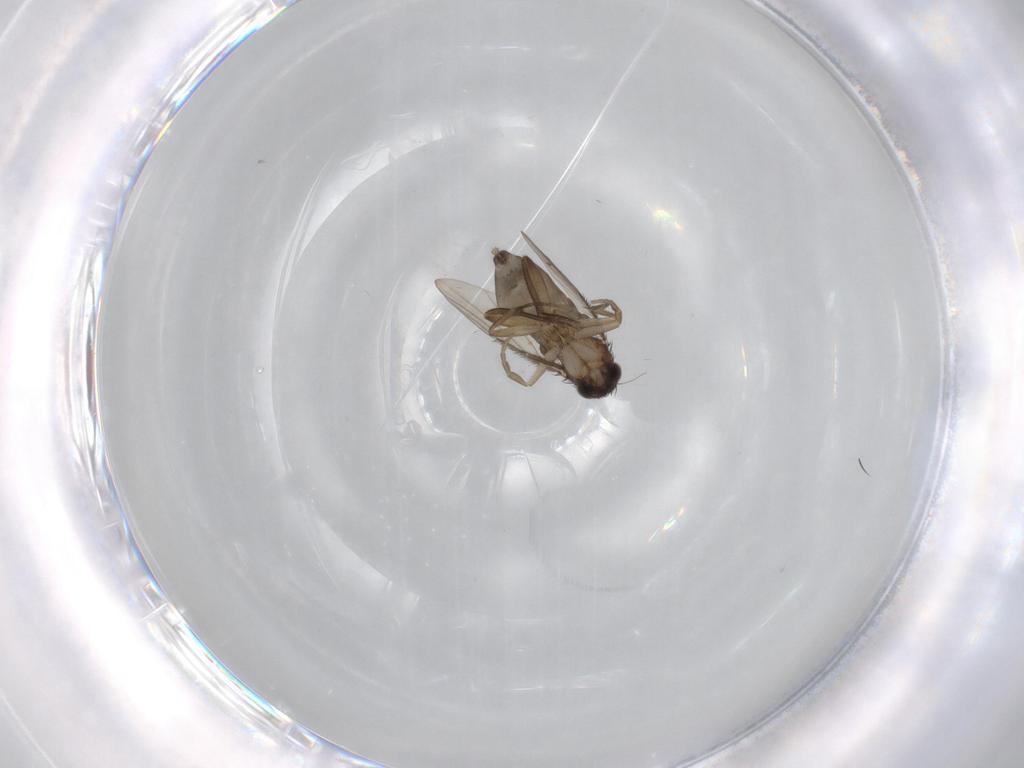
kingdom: Animalia
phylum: Arthropoda
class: Insecta
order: Diptera
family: Phoridae
